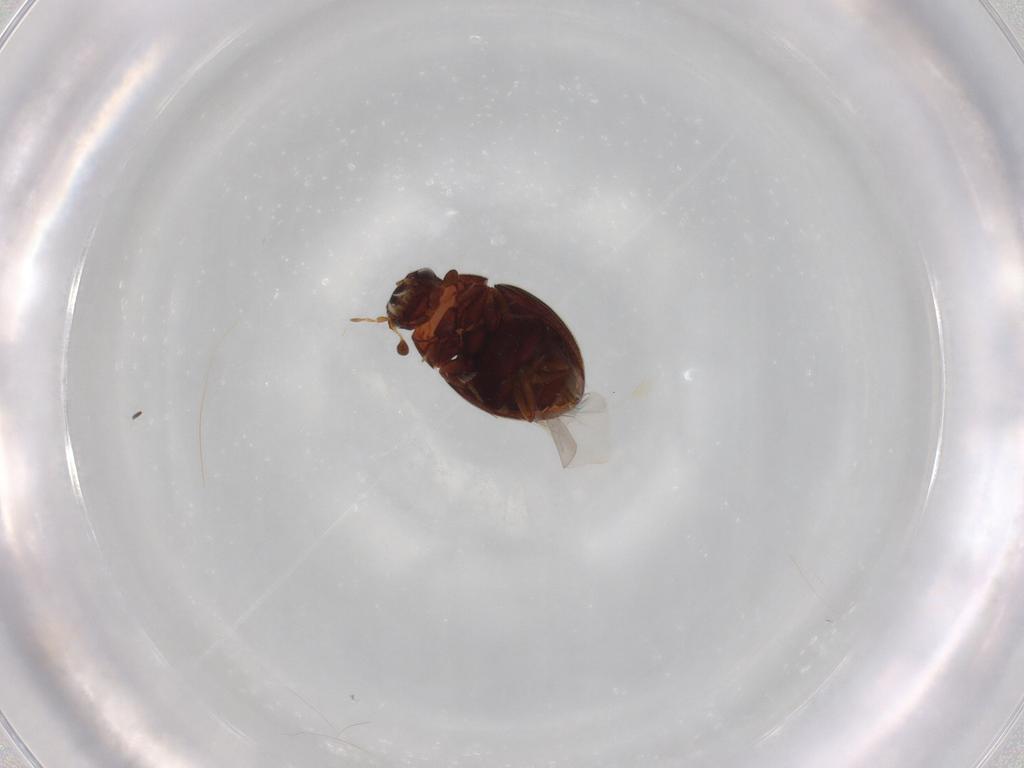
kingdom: Animalia
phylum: Arthropoda
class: Insecta
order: Coleoptera
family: Hydrophilidae
